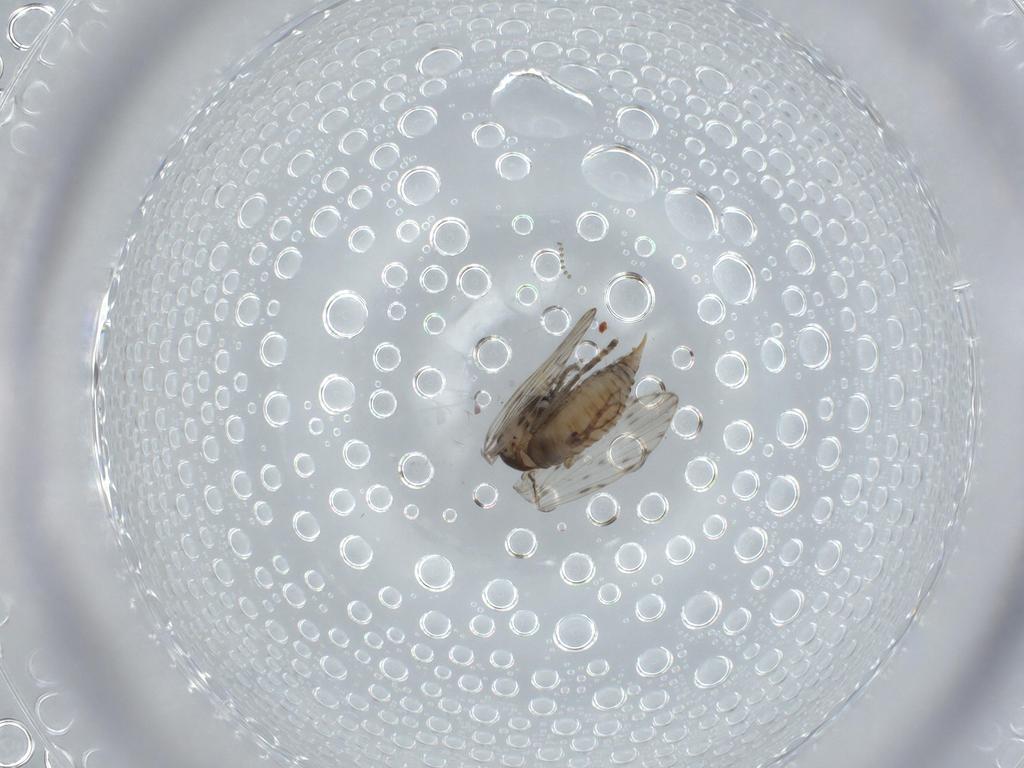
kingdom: Animalia
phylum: Arthropoda
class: Insecta
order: Diptera
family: Psychodidae
